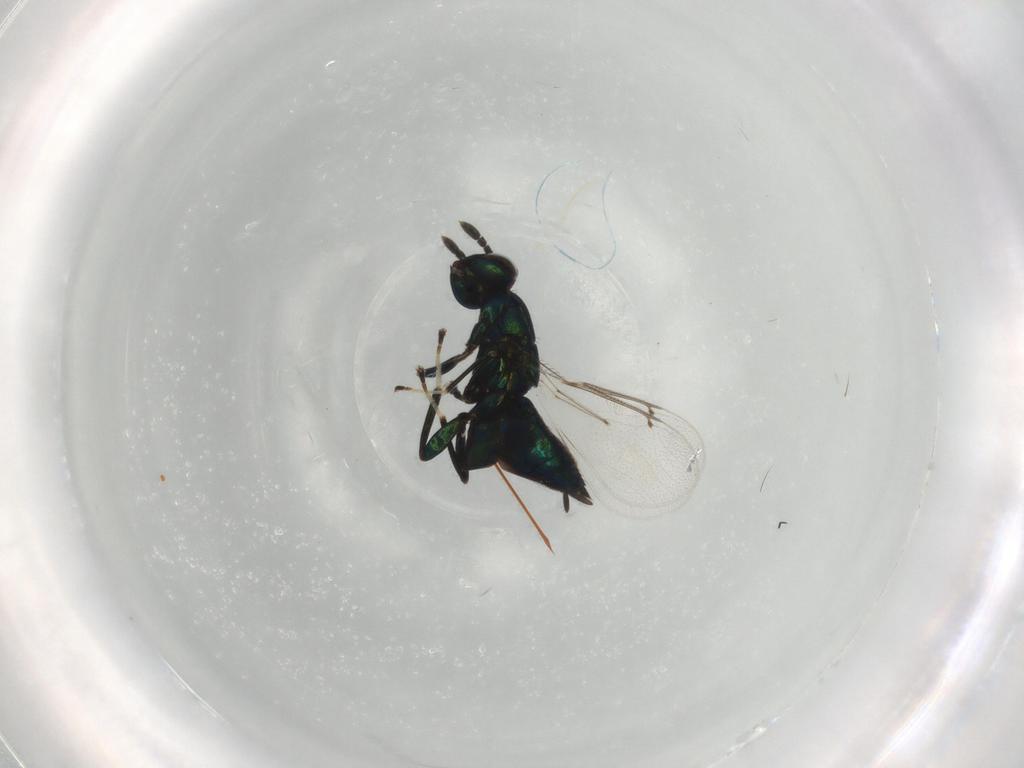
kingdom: Animalia
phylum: Arthropoda
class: Insecta
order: Hymenoptera
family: Eulophidae
